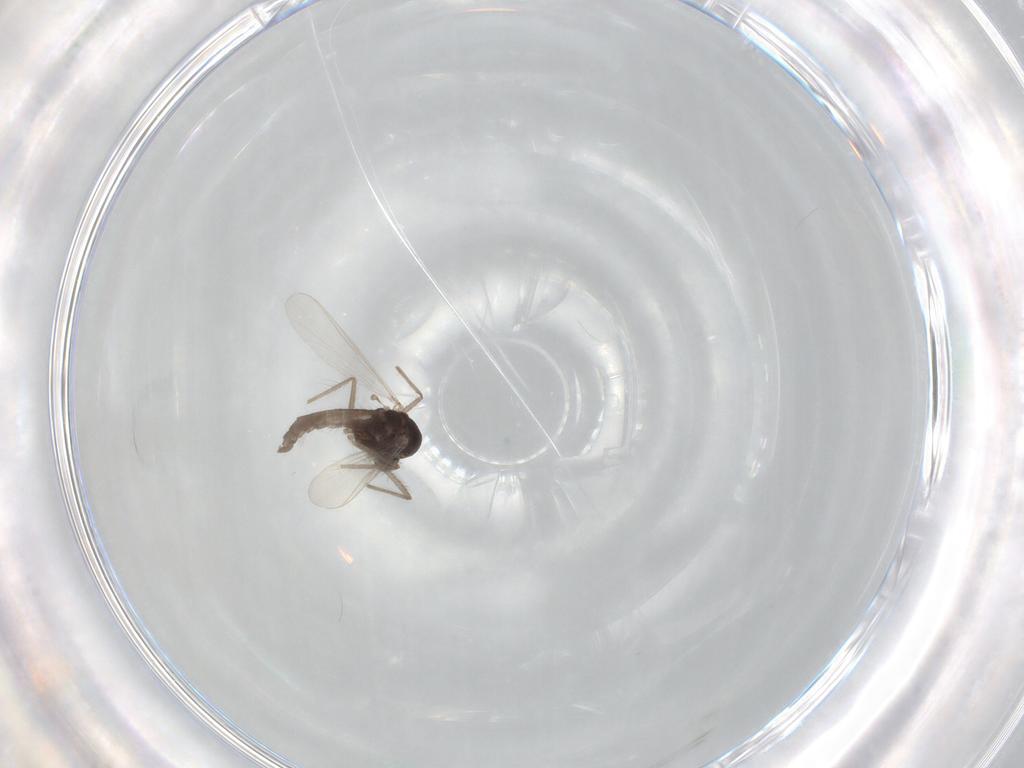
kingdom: Animalia
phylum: Arthropoda
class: Insecta
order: Diptera
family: Chironomidae
